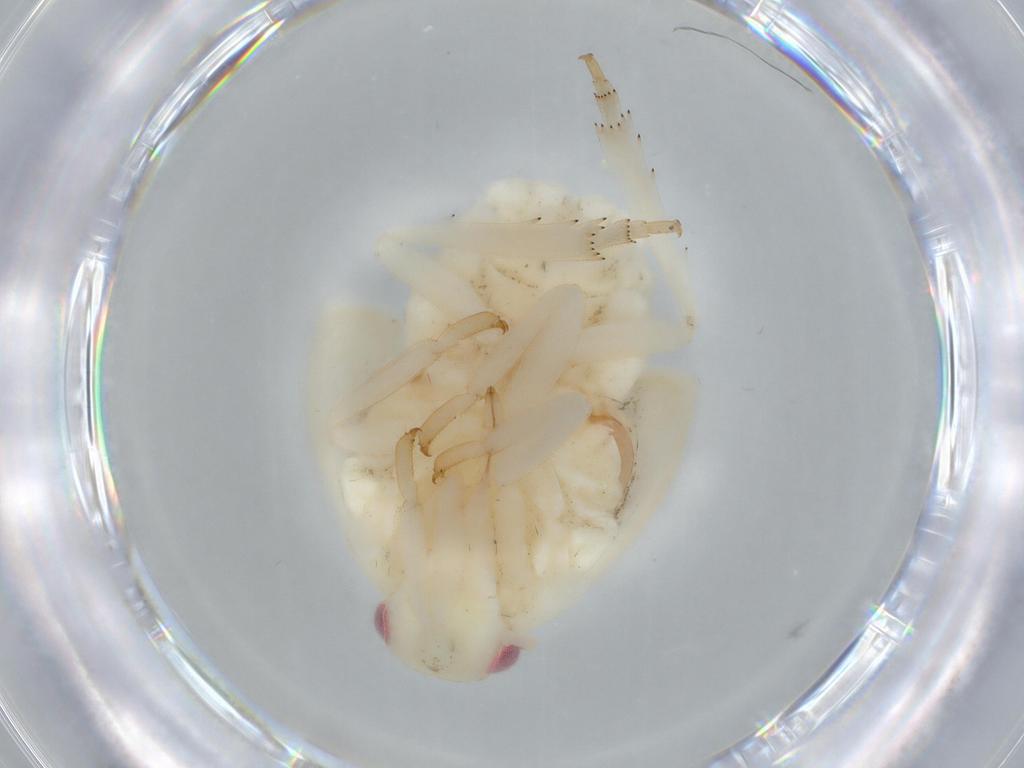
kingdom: Animalia
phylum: Arthropoda
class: Insecta
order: Hemiptera
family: Flatidae
